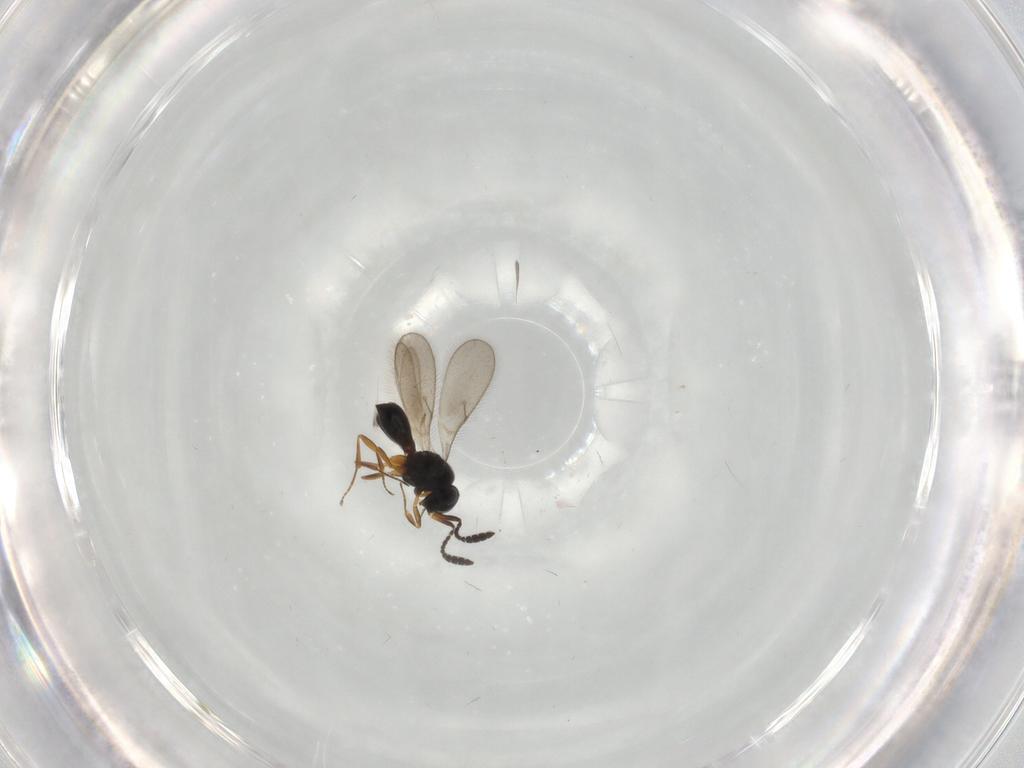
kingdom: Animalia
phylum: Arthropoda
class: Insecta
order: Hymenoptera
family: Scelionidae
